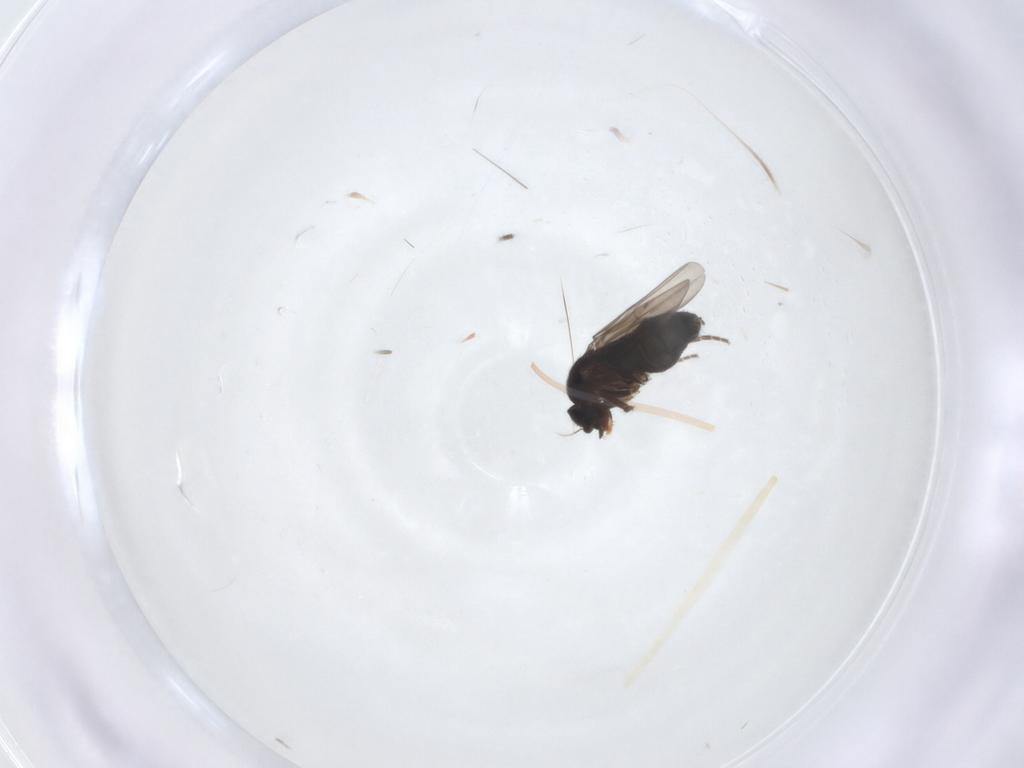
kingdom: Animalia
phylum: Arthropoda
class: Insecta
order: Diptera
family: Phoridae
